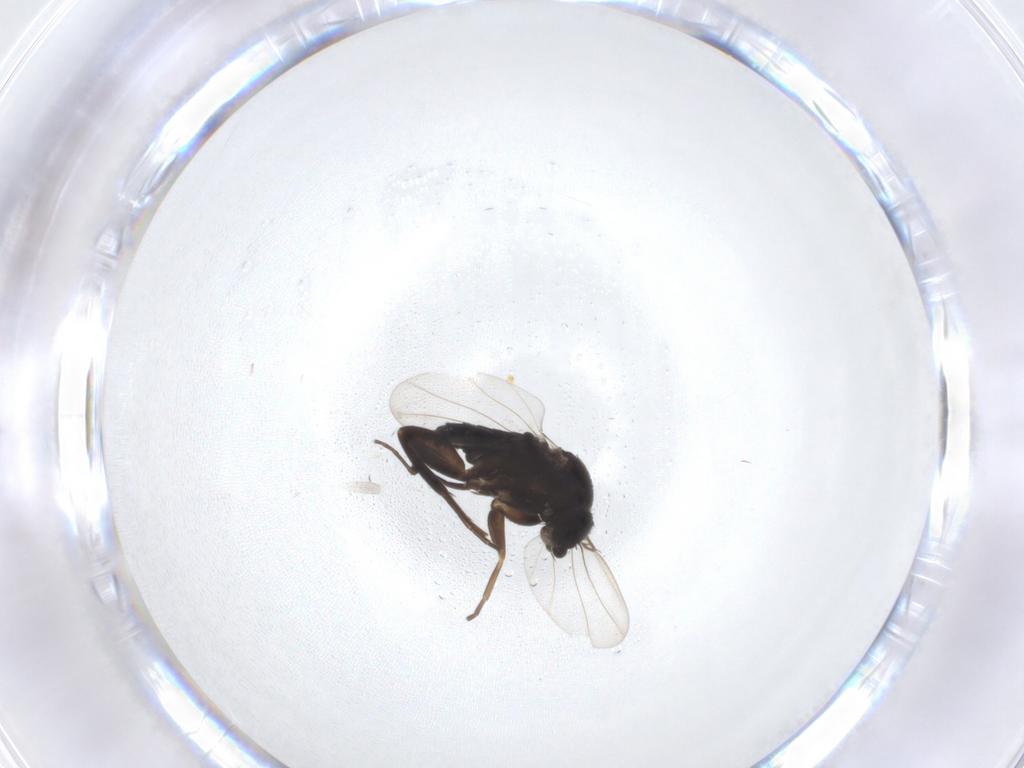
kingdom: Animalia
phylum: Arthropoda
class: Insecta
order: Diptera
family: Phoridae
